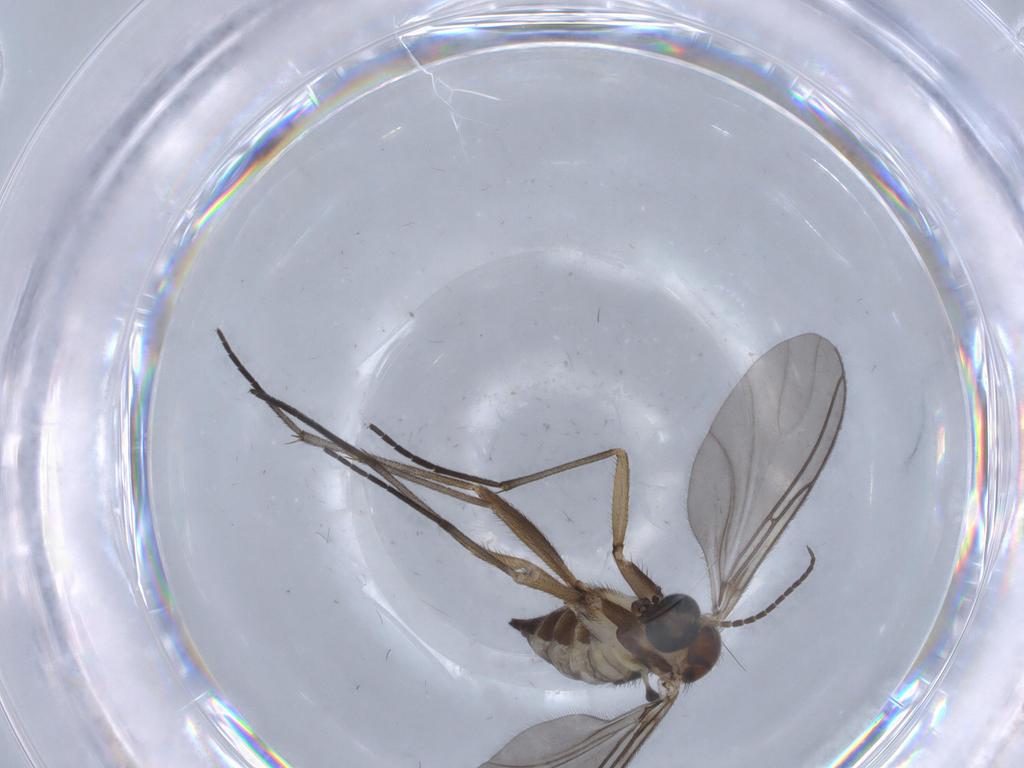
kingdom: Animalia
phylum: Arthropoda
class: Insecta
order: Diptera
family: Sciaridae
